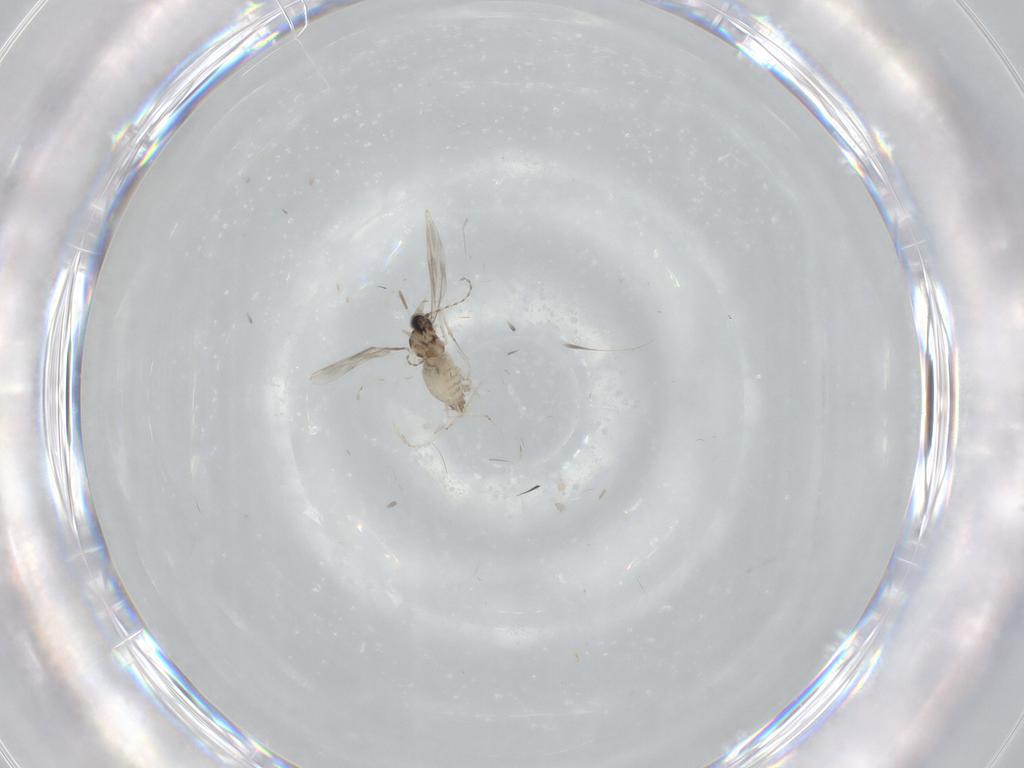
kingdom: Animalia
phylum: Arthropoda
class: Insecta
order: Diptera
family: Cecidomyiidae
